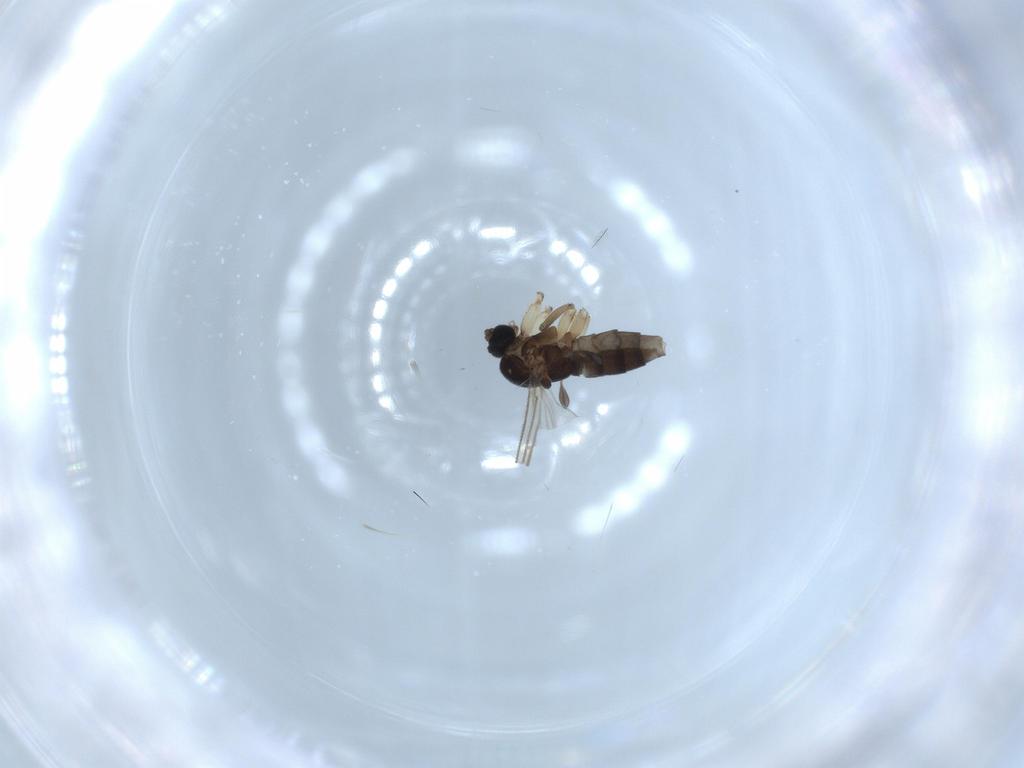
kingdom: Animalia
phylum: Arthropoda
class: Insecta
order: Diptera
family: Sciaridae
